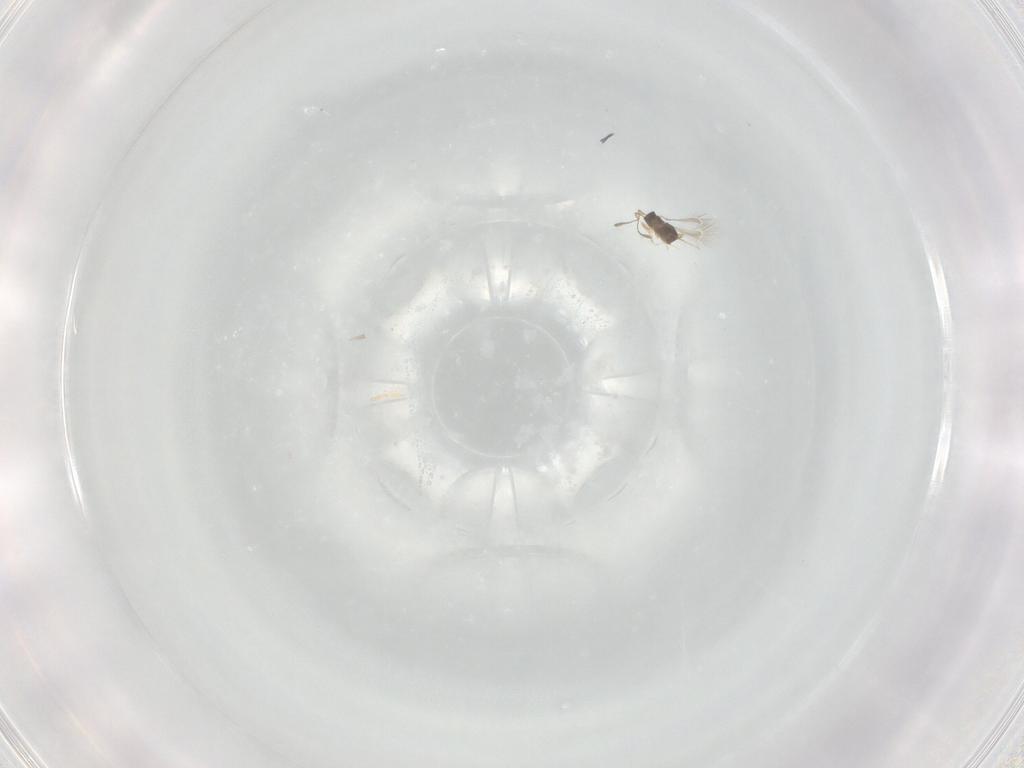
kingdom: Animalia
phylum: Arthropoda
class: Insecta
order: Hymenoptera
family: Mymaridae
